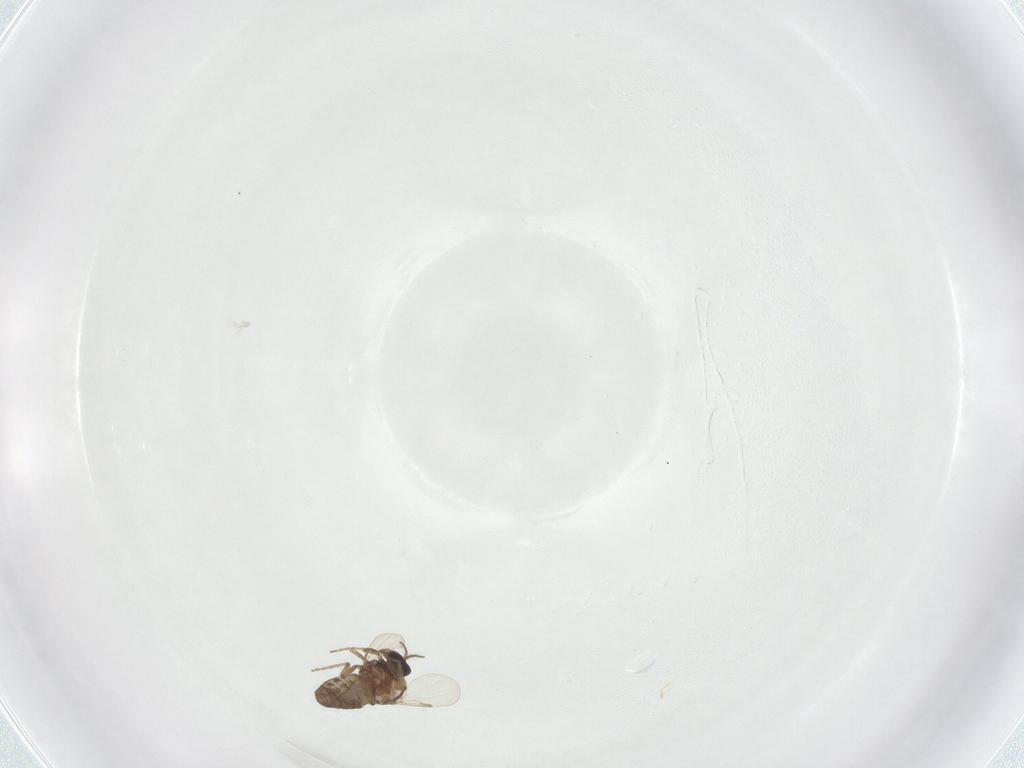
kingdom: Animalia
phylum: Arthropoda
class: Insecta
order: Diptera
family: Ceratopogonidae
